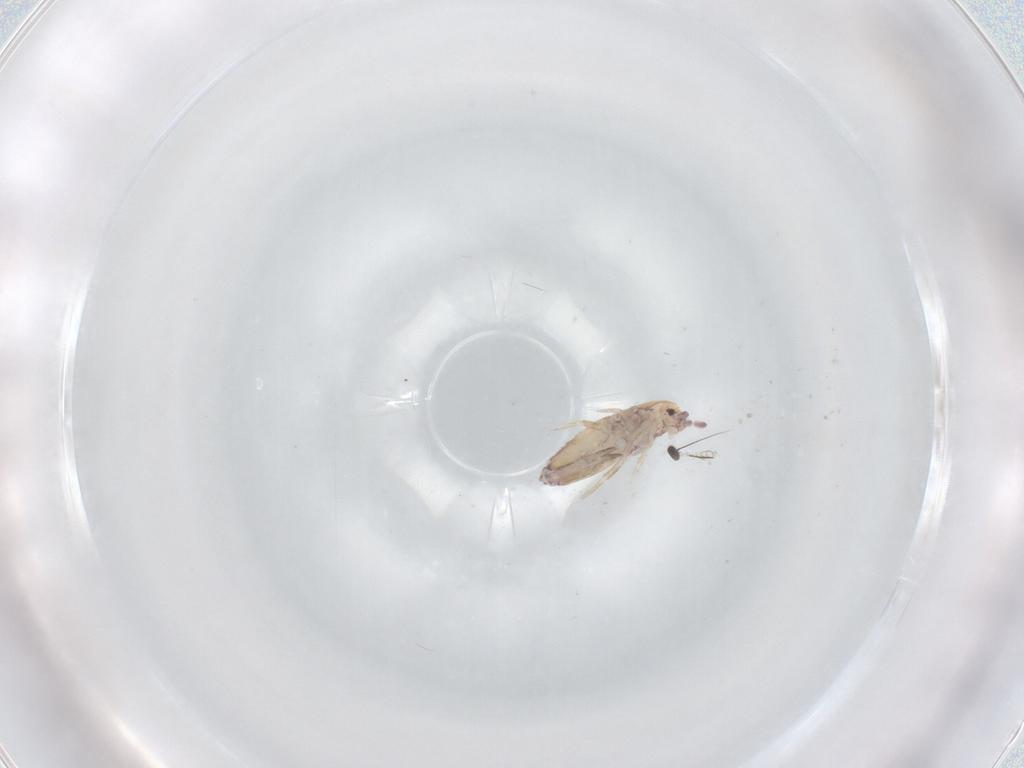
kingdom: Animalia
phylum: Arthropoda
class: Collembola
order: Entomobryomorpha
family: Entomobryidae
